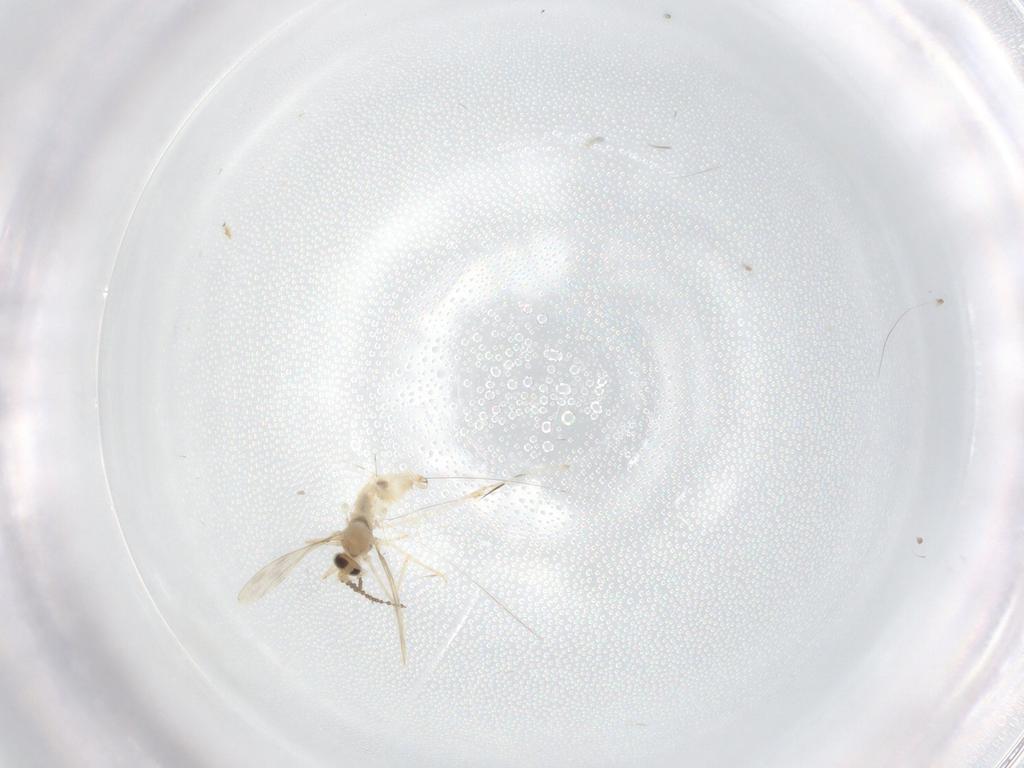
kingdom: Animalia
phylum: Arthropoda
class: Insecta
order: Diptera
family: Cecidomyiidae
